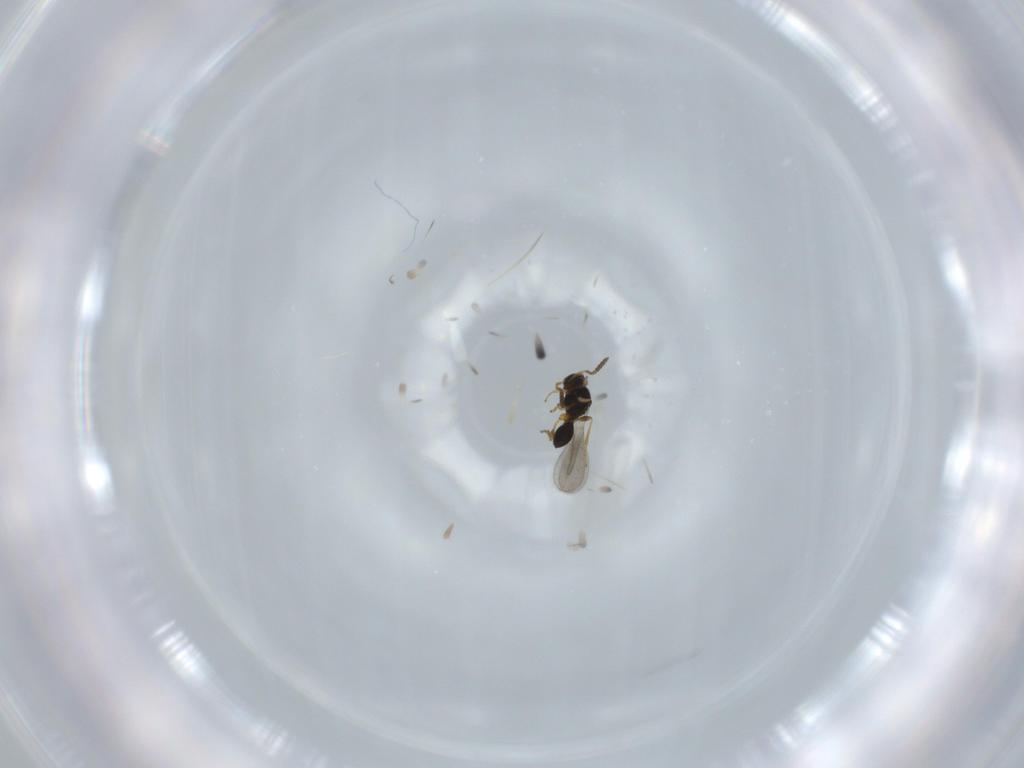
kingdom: Animalia
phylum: Arthropoda
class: Insecta
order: Hymenoptera
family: Platygastridae
